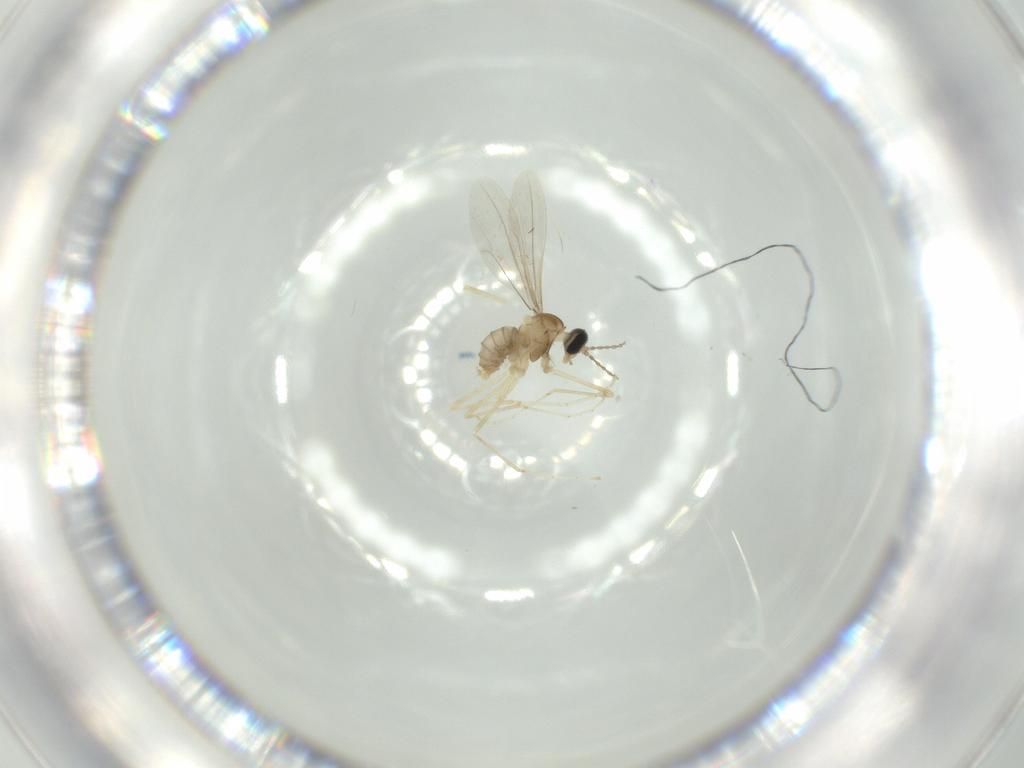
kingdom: Animalia
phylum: Arthropoda
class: Insecta
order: Diptera
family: Cecidomyiidae
